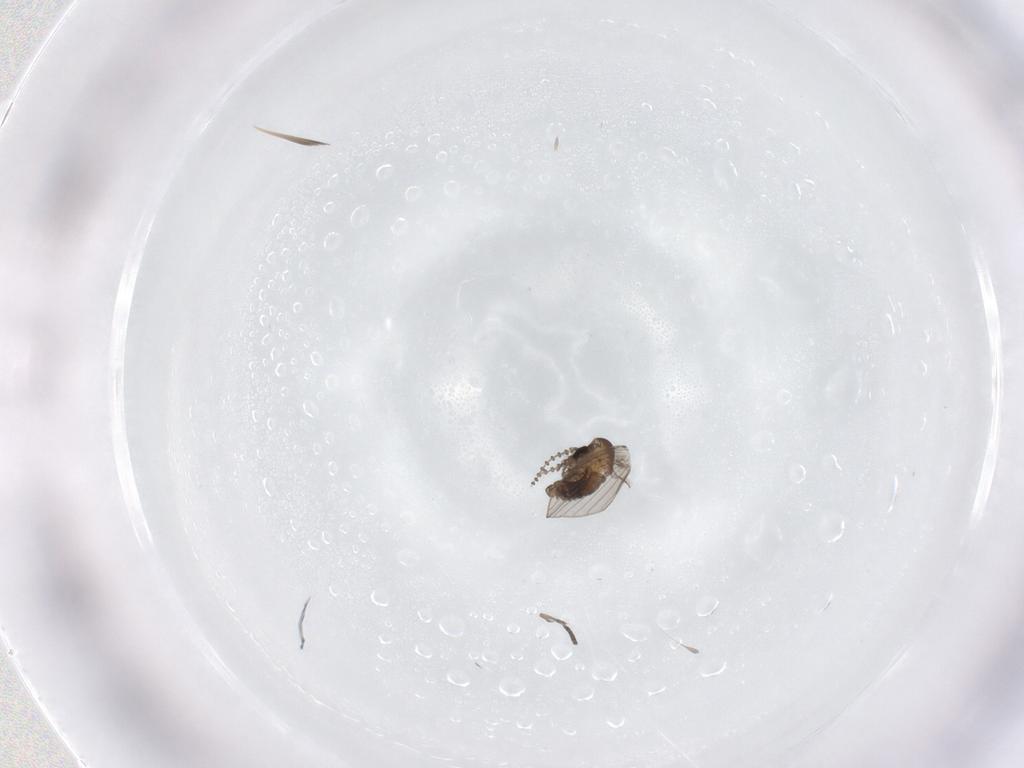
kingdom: Animalia
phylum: Arthropoda
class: Insecta
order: Diptera
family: Psychodidae
